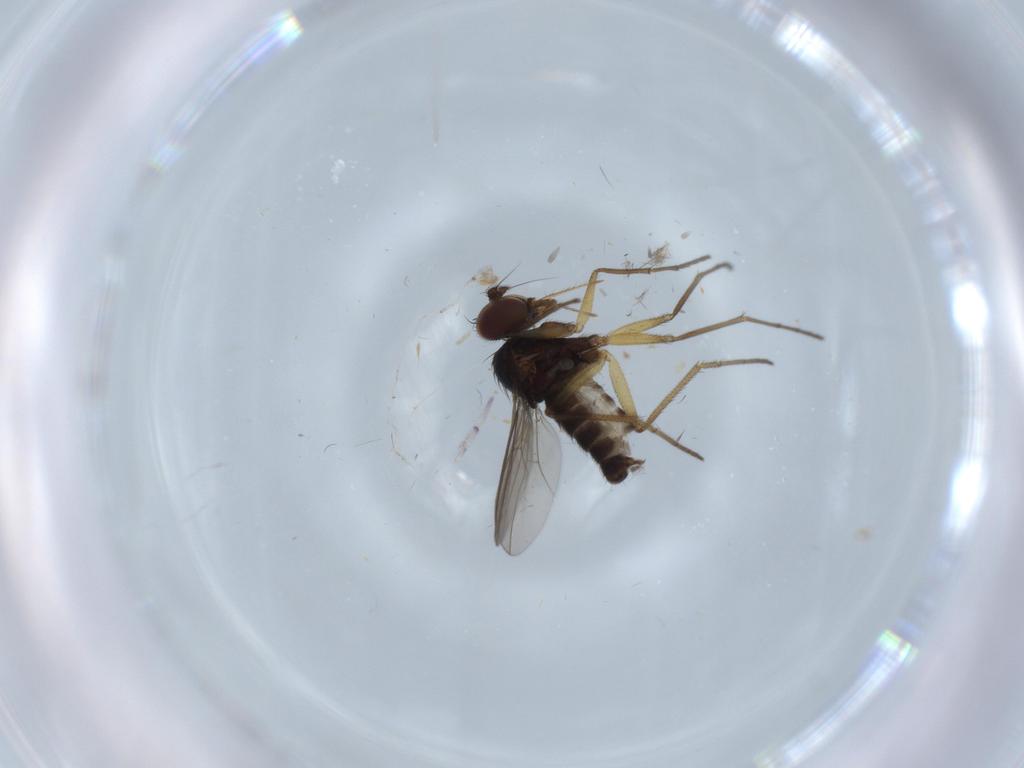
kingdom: Animalia
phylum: Arthropoda
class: Insecta
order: Diptera
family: Dolichopodidae
